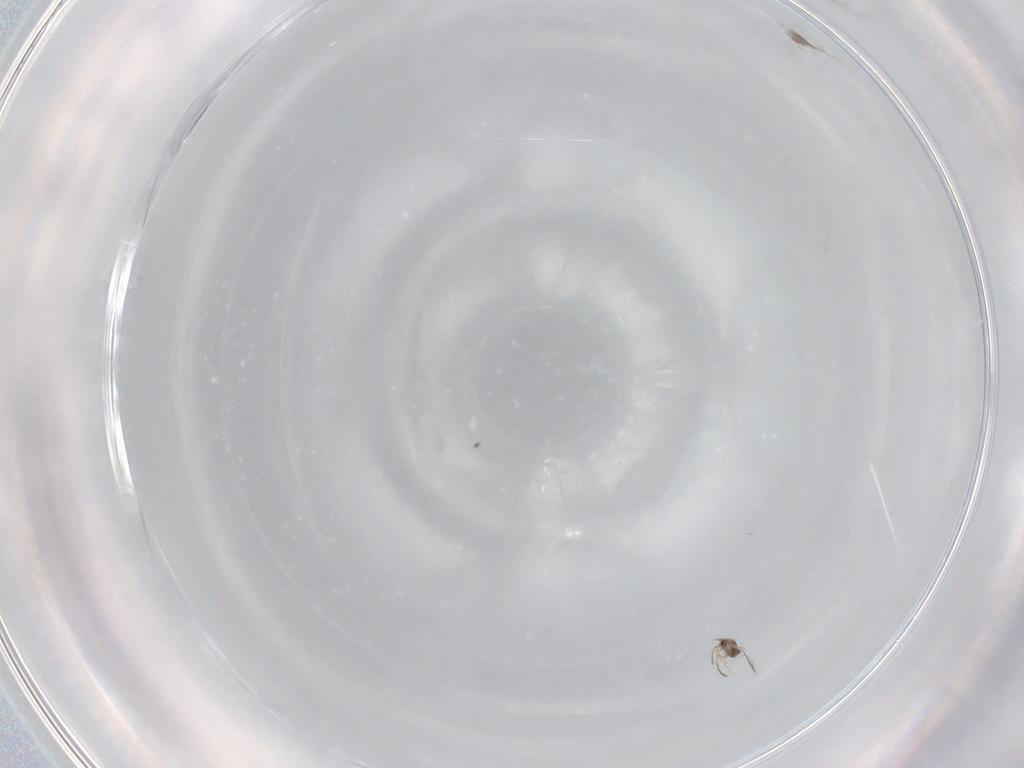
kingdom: Animalia
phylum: Arthropoda
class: Insecta
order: Hymenoptera
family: Mymaridae
